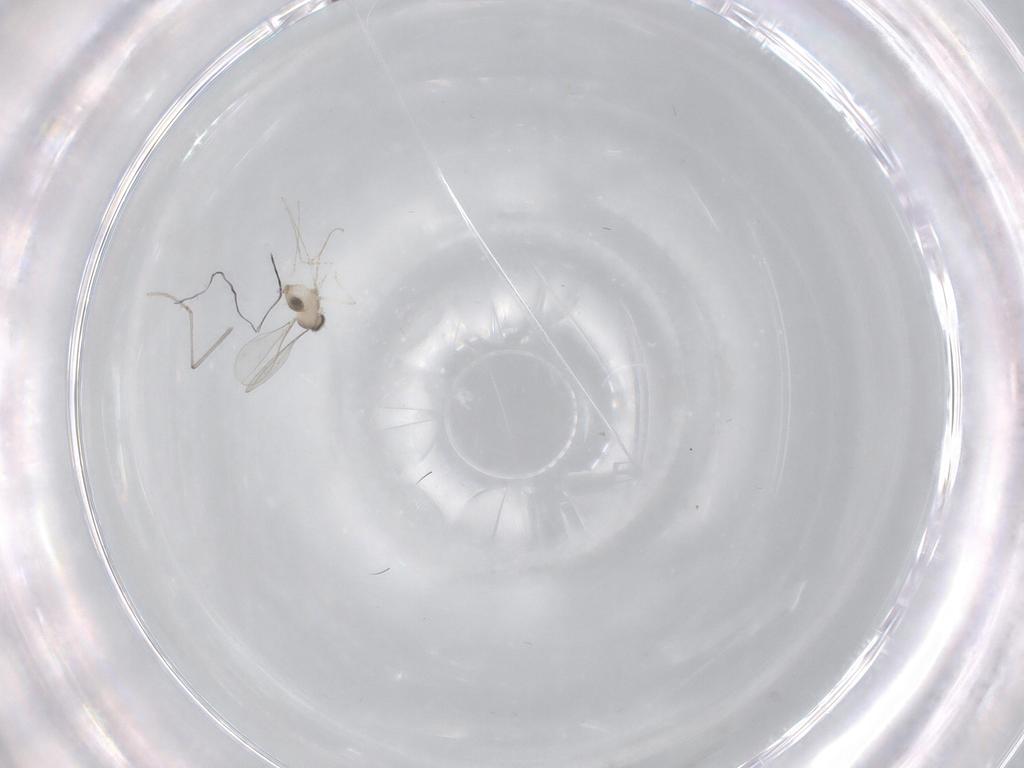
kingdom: Animalia
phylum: Arthropoda
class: Insecta
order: Diptera
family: Cecidomyiidae
